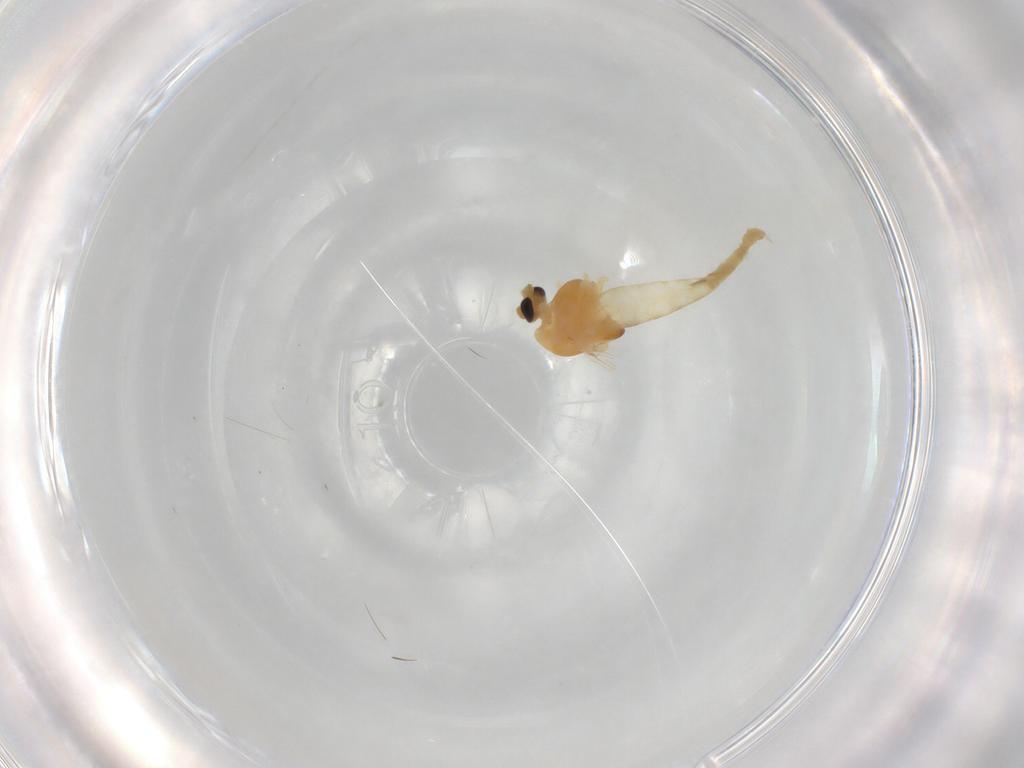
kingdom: Animalia
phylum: Arthropoda
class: Insecta
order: Diptera
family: Chironomidae
